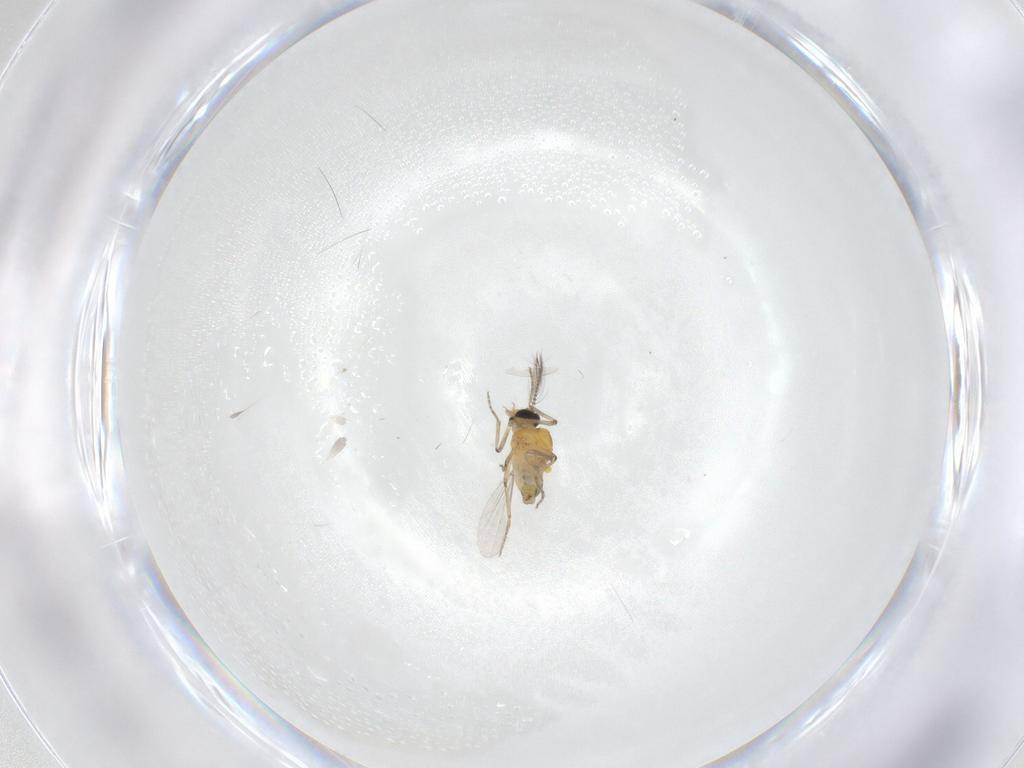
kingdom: Animalia
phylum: Arthropoda
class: Insecta
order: Diptera
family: Ceratopogonidae
